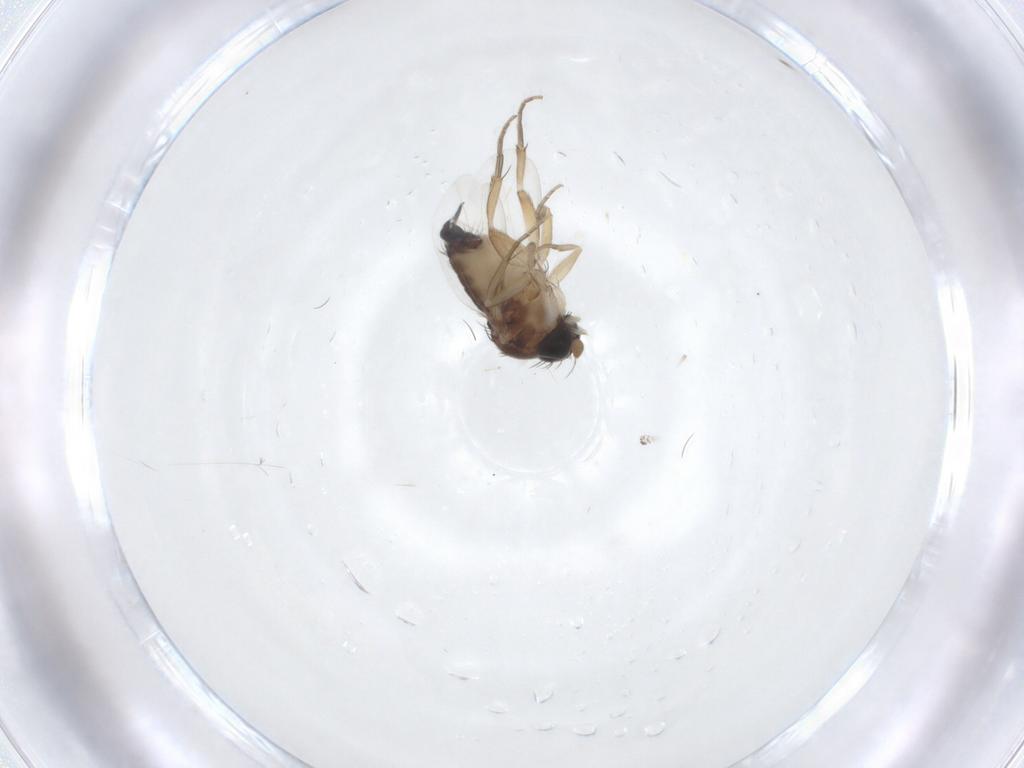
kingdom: Animalia
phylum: Arthropoda
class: Insecta
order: Diptera
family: Phoridae
